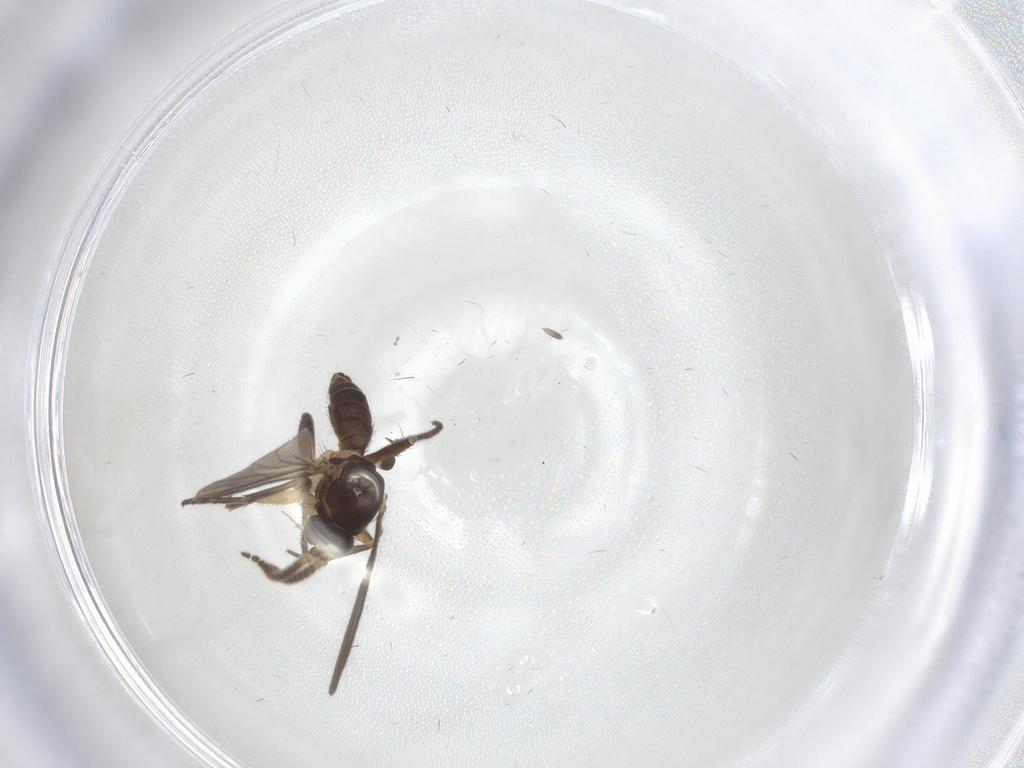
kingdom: Animalia
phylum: Arthropoda
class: Insecta
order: Diptera
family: Mycetophilidae
